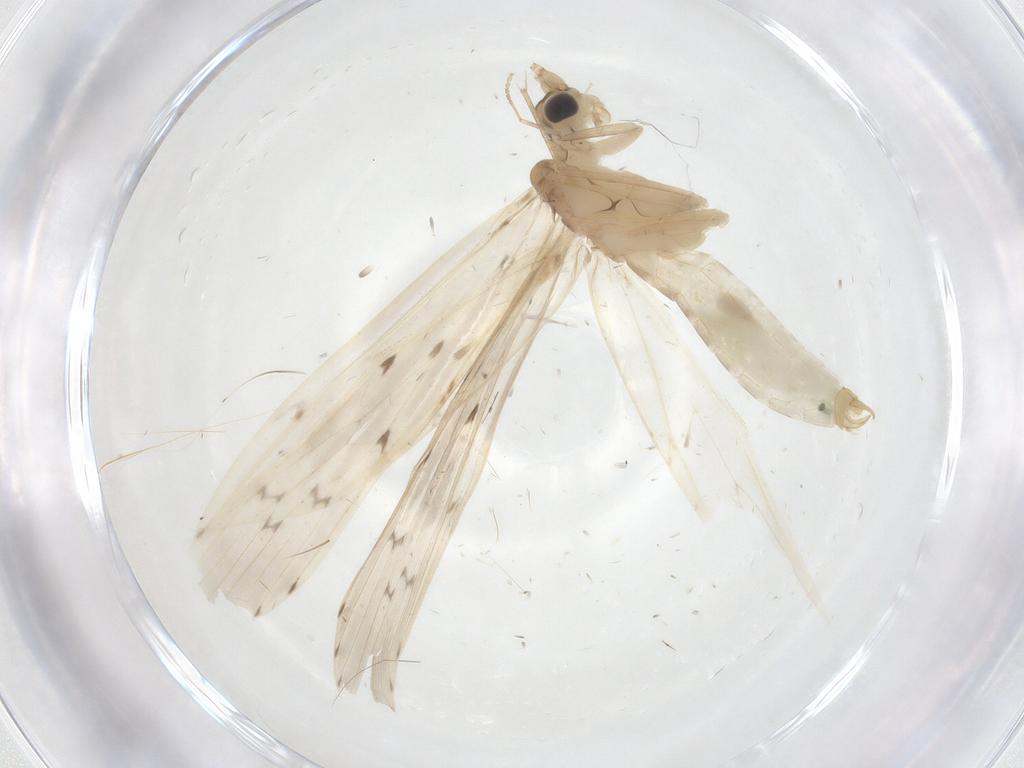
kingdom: Animalia
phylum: Arthropoda
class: Insecta
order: Trichoptera
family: Leptoceridae
